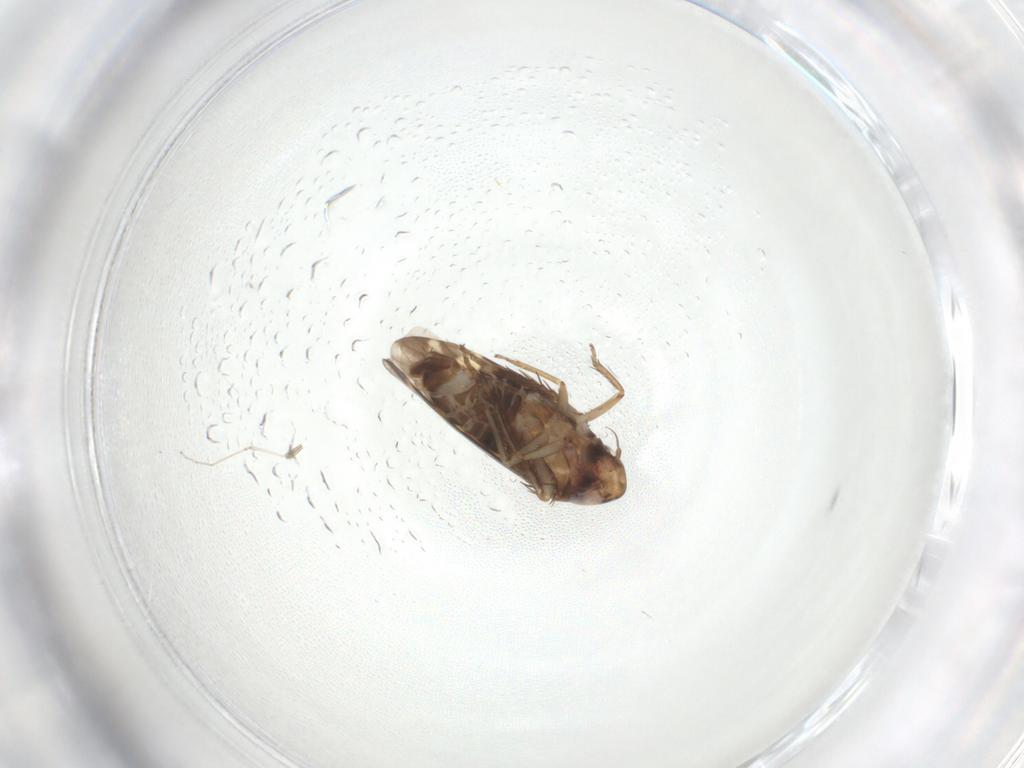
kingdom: Animalia
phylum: Arthropoda
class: Insecta
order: Hemiptera
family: Cicadellidae
